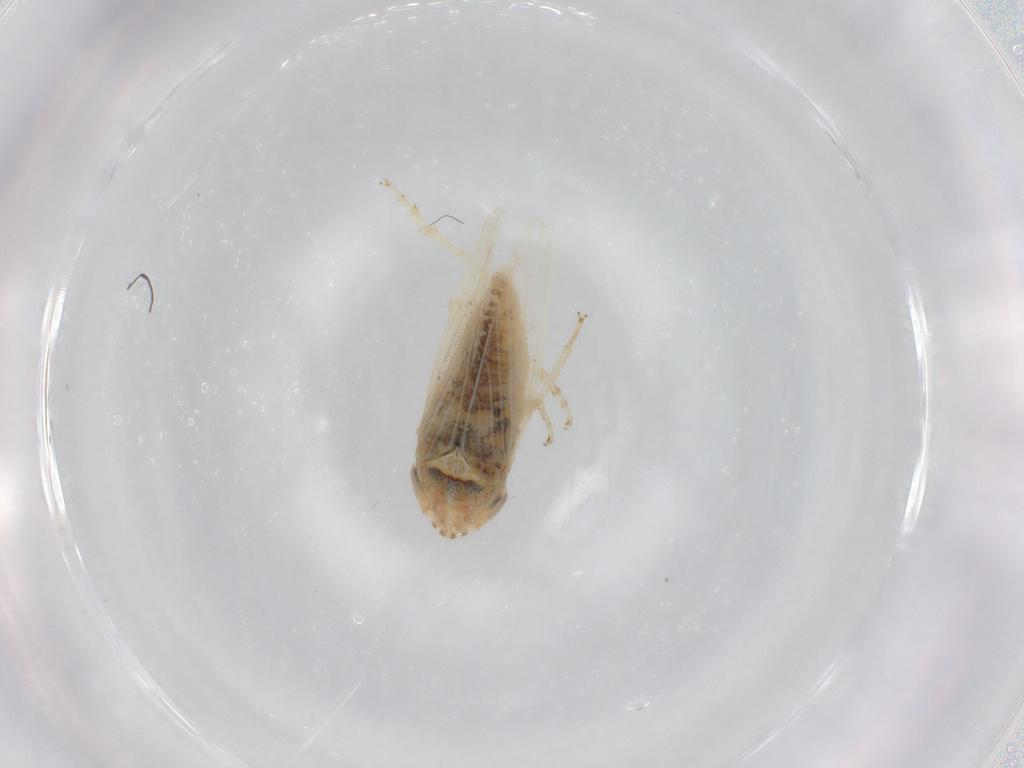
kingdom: Animalia
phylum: Arthropoda
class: Insecta
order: Hemiptera
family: Cicadellidae
